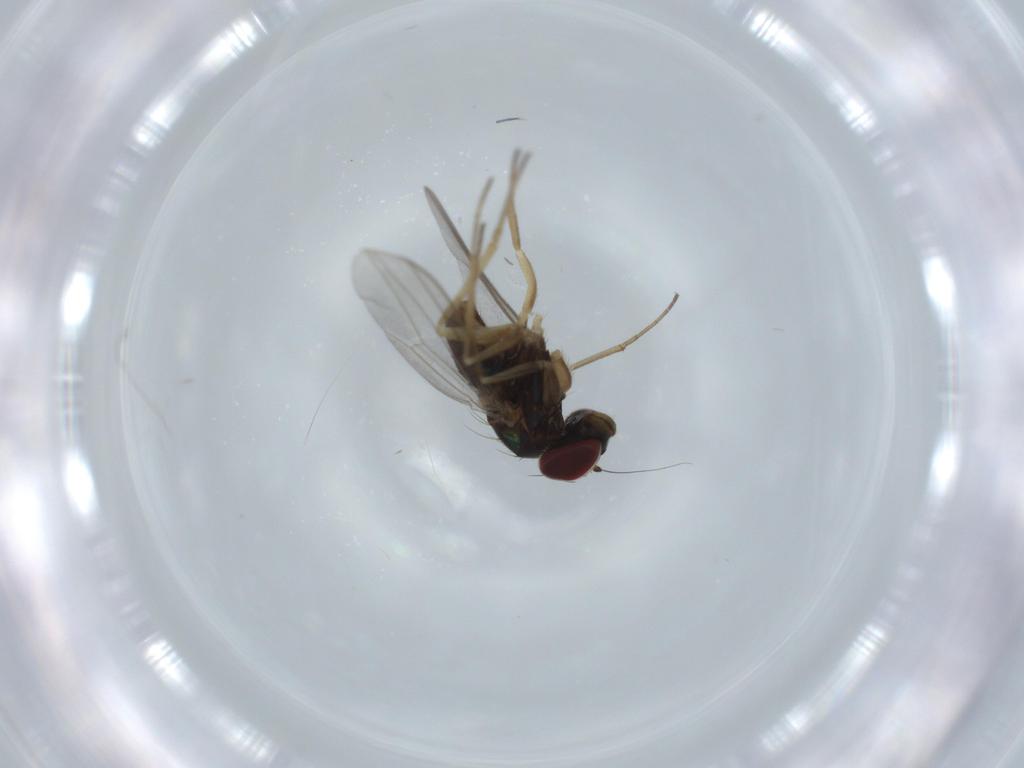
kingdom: Animalia
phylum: Arthropoda
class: Insecta
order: Diptera
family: Dolichopodidae
